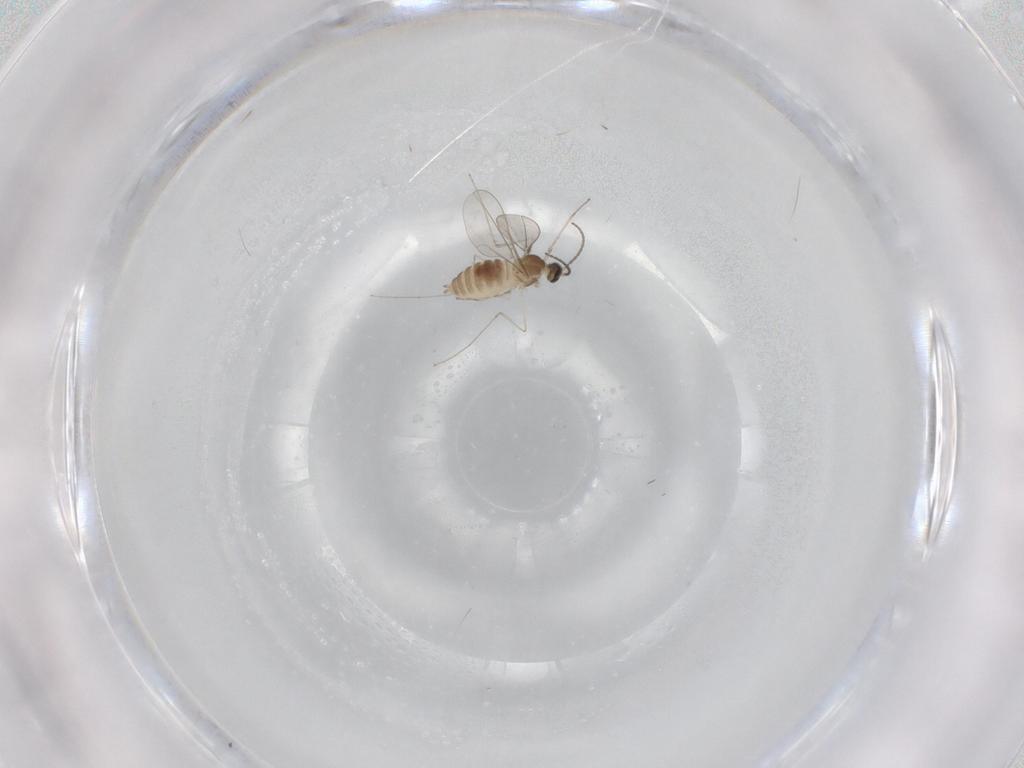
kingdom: Animalia
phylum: Arthropoda
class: Insecta
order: Diptera
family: Cecidomyiidae
